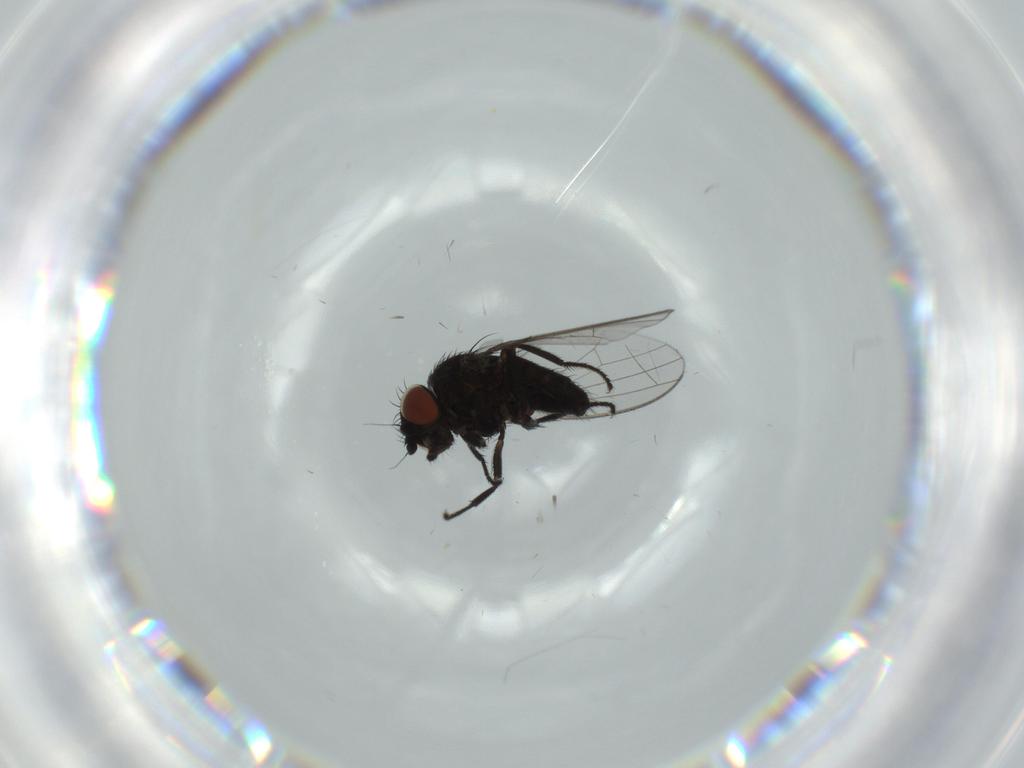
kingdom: Animalia
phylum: Arthropoda
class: Insecta
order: Diptera
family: Milichiidae
